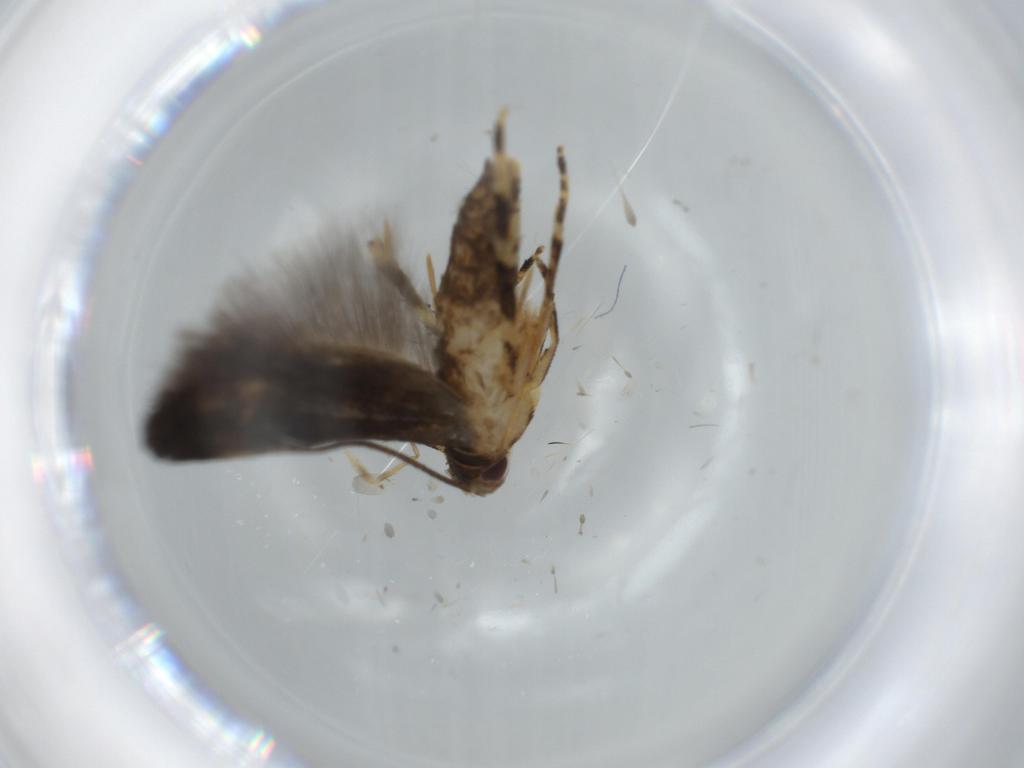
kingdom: Animalia
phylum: Arthropoda
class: Insecta
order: Lepidoptera
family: Momphidae
